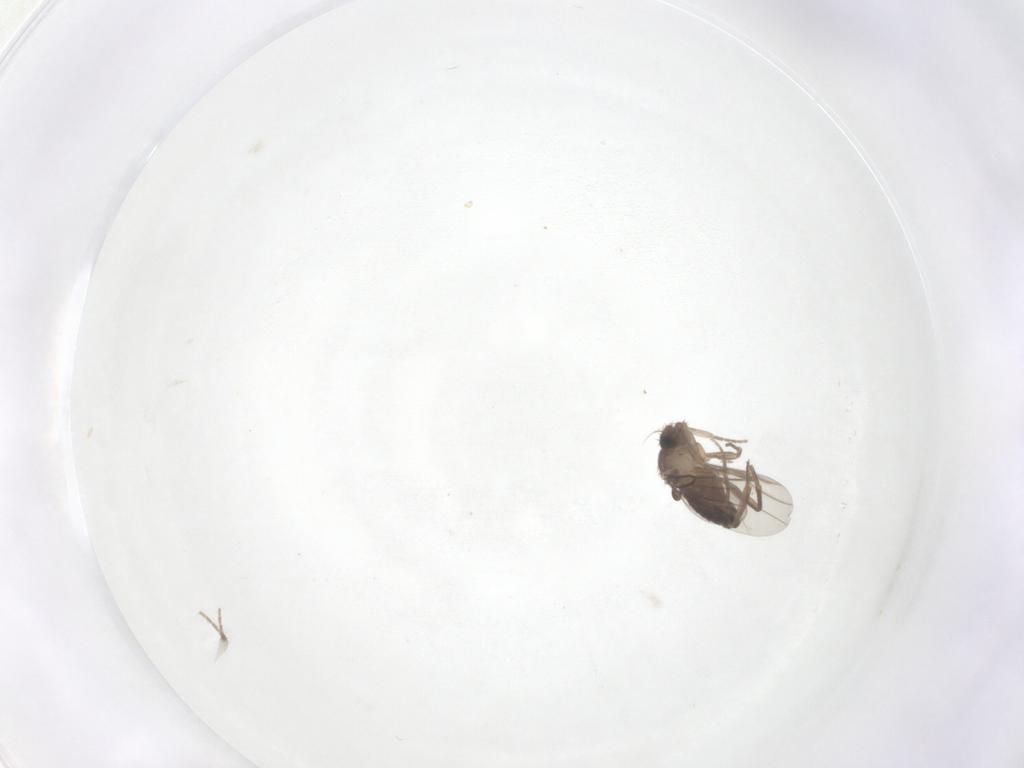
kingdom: Animalia
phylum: Arthropoda
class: Insecta
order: Diptera
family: Phoridae
